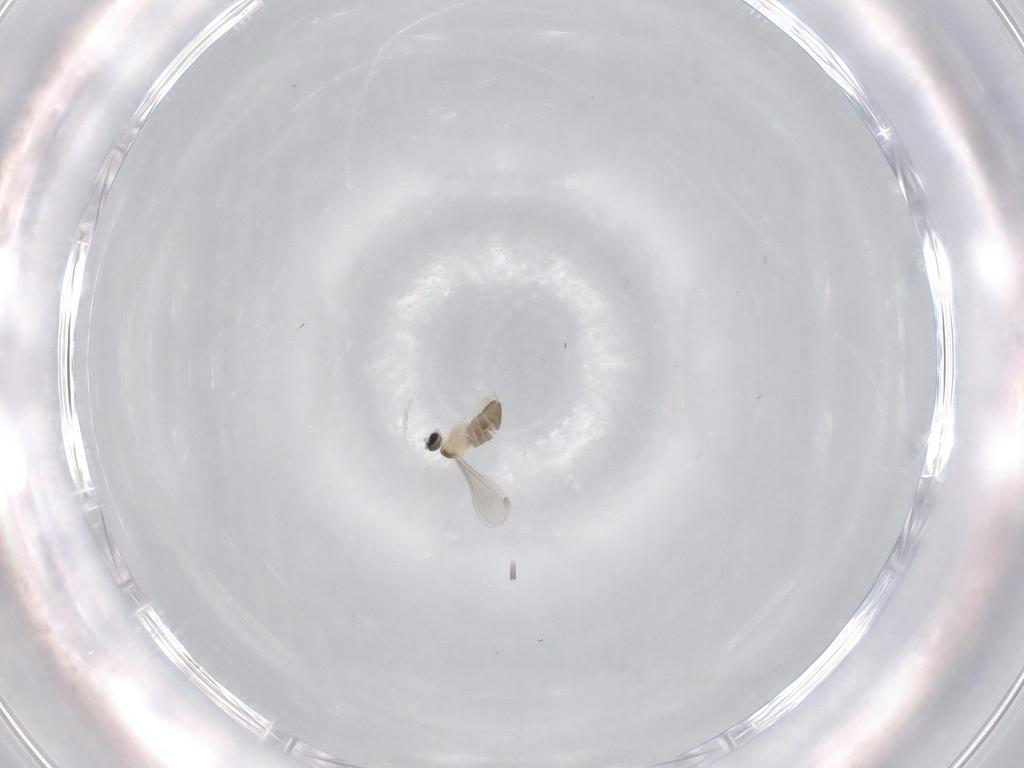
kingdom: Animalia
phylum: Arthropoda
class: Insecta
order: Diptera
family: Cecidomyiidae
